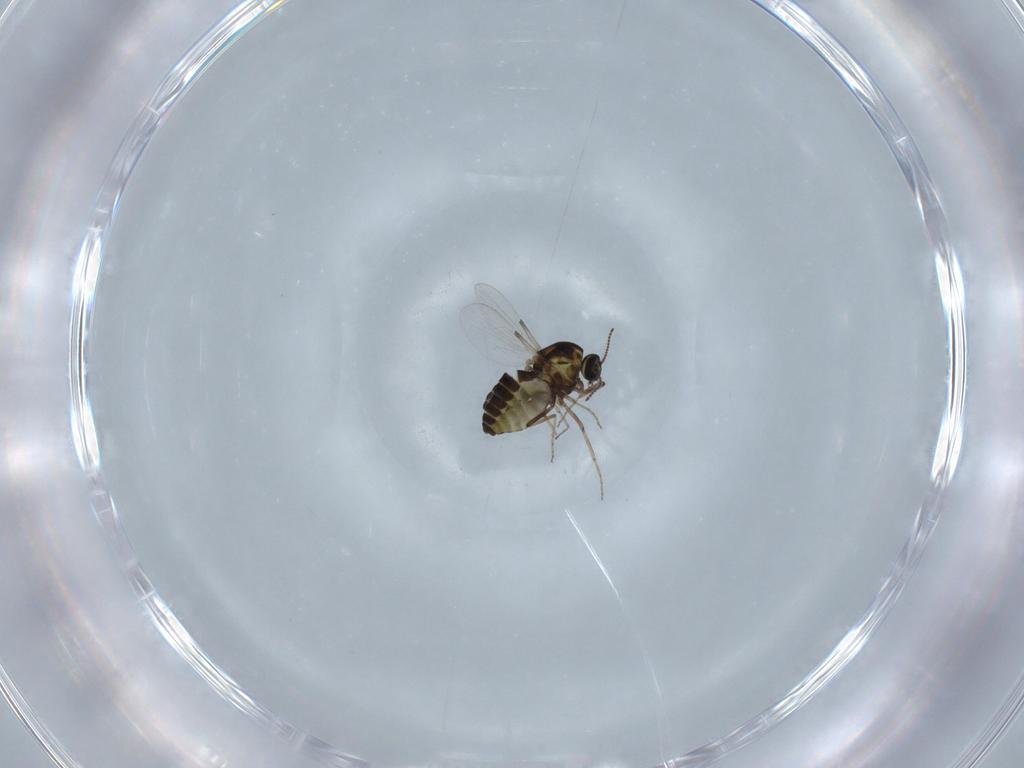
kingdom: Animalia
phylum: Arthropoda
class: Insecta
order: Diptera
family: Ceratopogonidae
